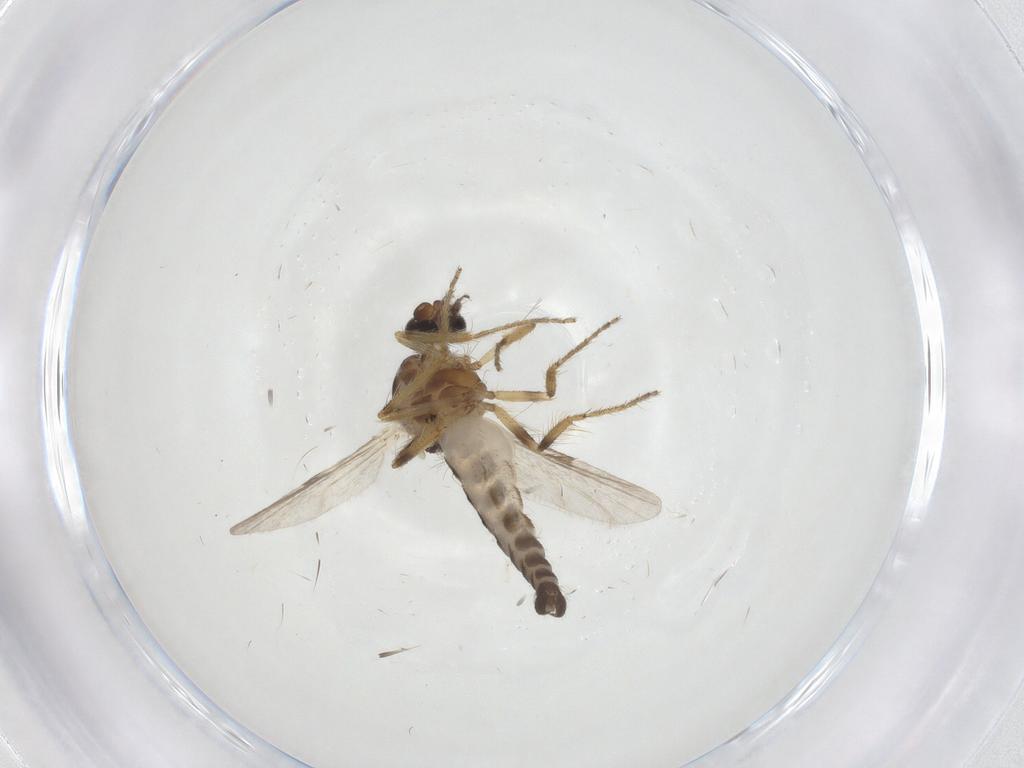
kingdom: Animalia
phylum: Arthropoda
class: Insecta
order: Diptera
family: Ceratopogonidae
